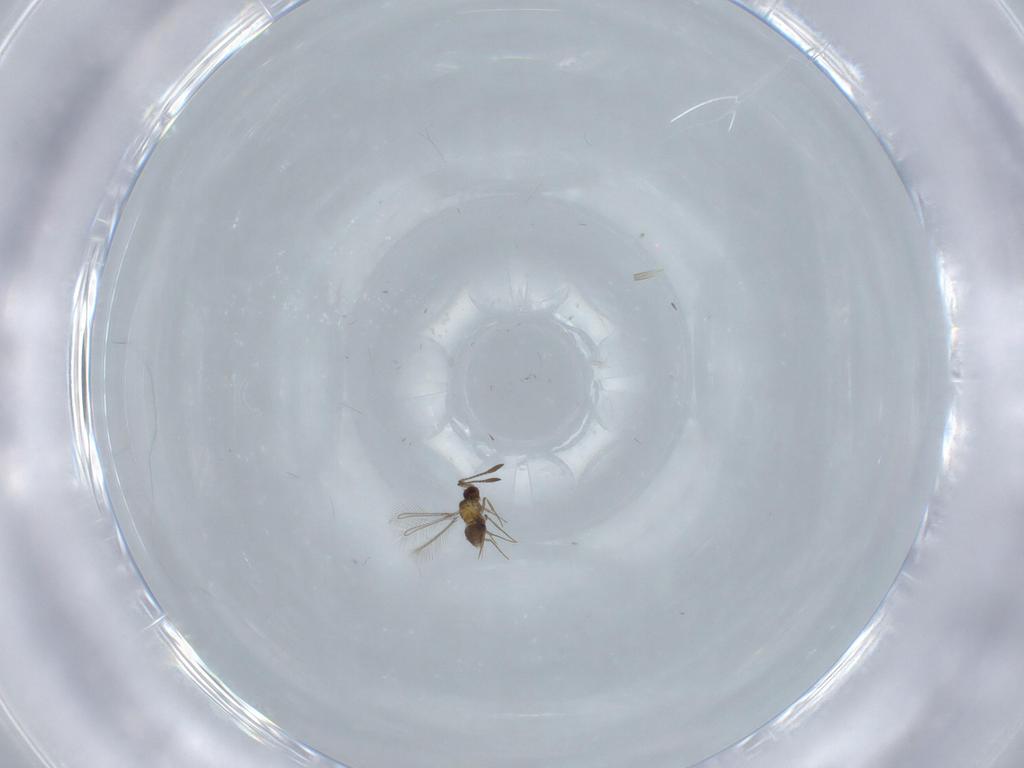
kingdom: Animalia
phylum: Arthropoda
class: Insecta
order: Hymenoptera
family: Mymaridae
